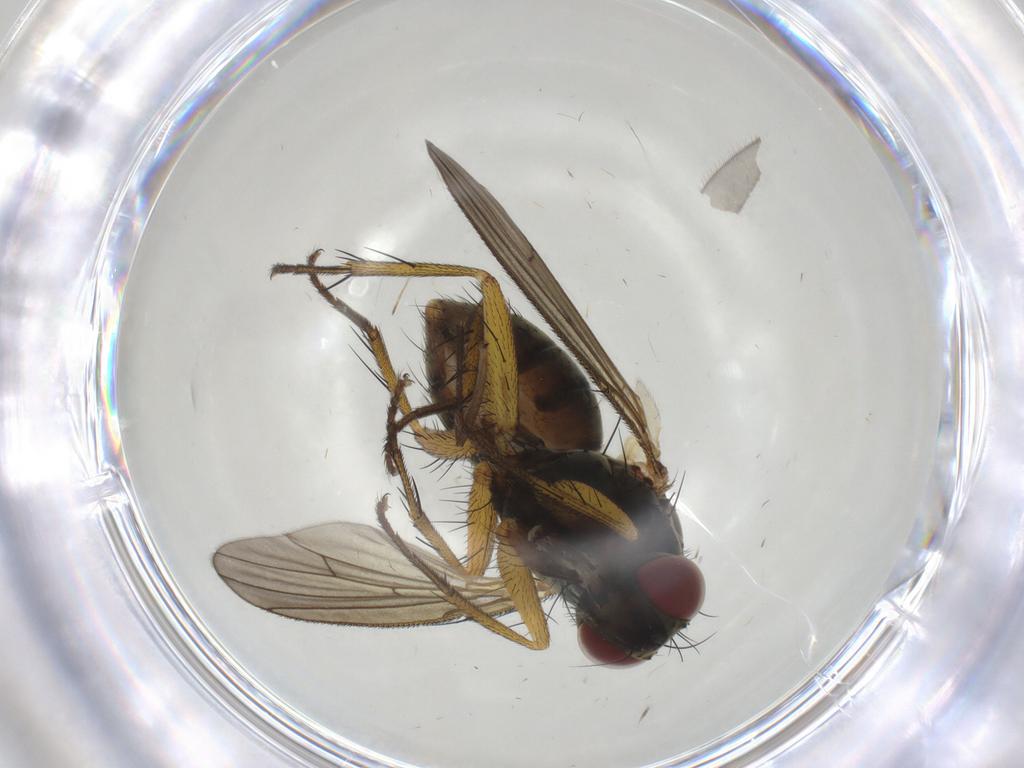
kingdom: Animalia
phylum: Arthropoda
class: Insecta
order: Diptera
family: Muscidae
